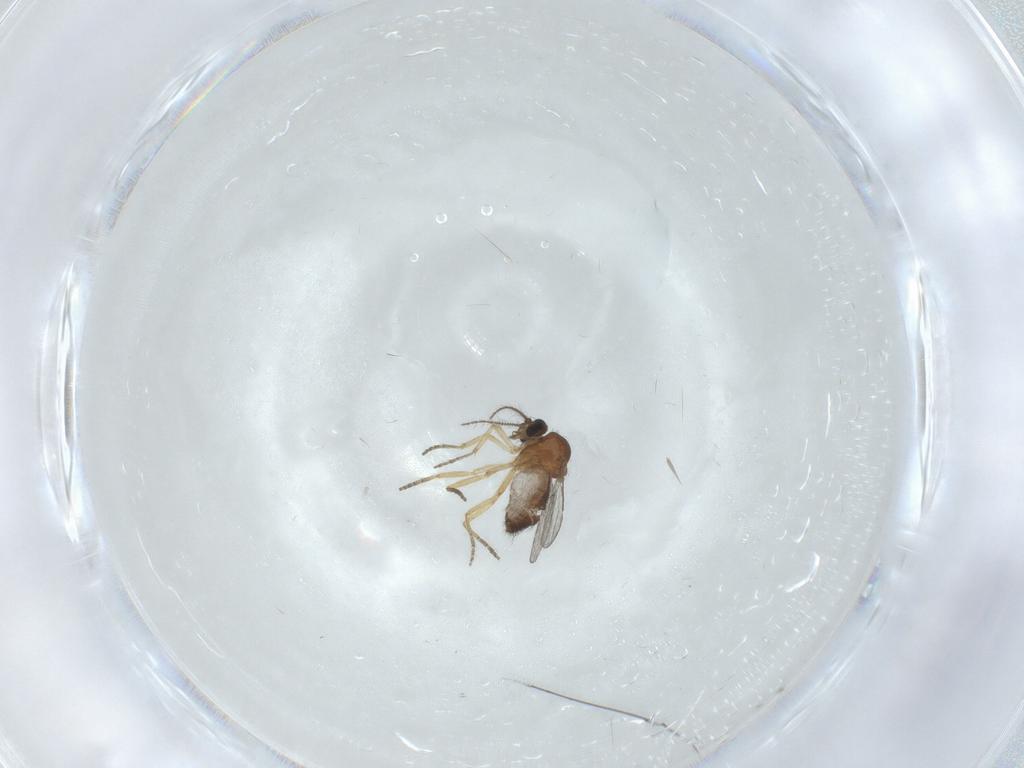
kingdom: Animalia
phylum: Arthropoda
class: Insecta
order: Diptera
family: Ceratopogonidae
